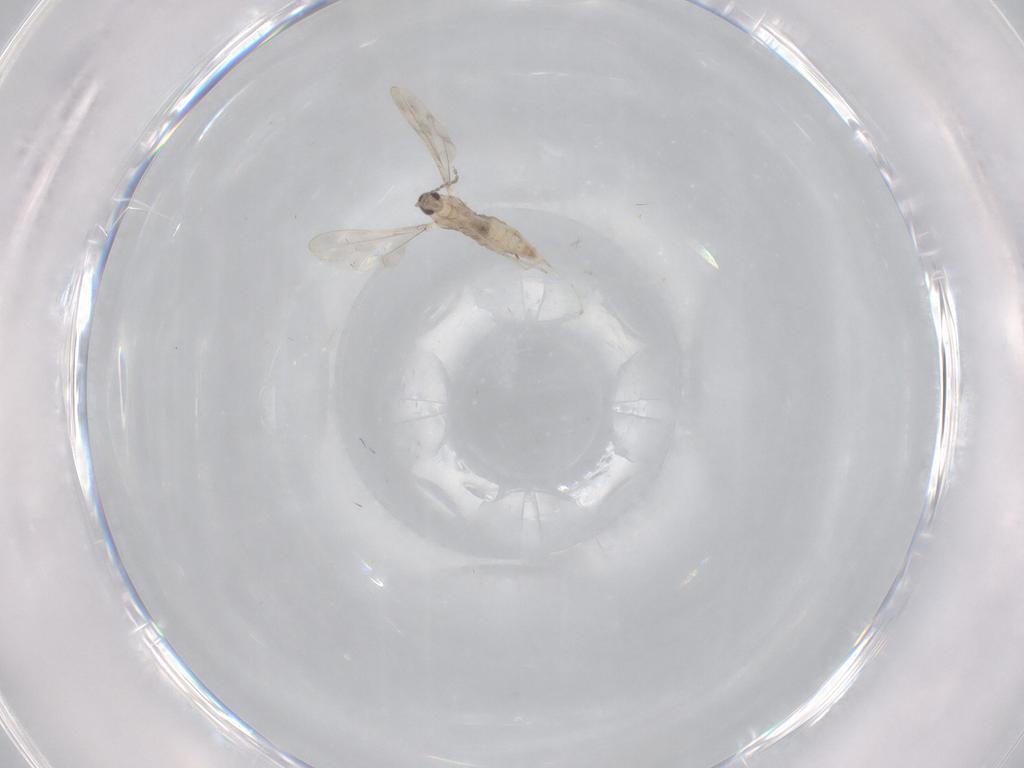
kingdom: Animalia
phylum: Arthropoda
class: Insecta
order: Diptera
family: Cecidomyiidae
